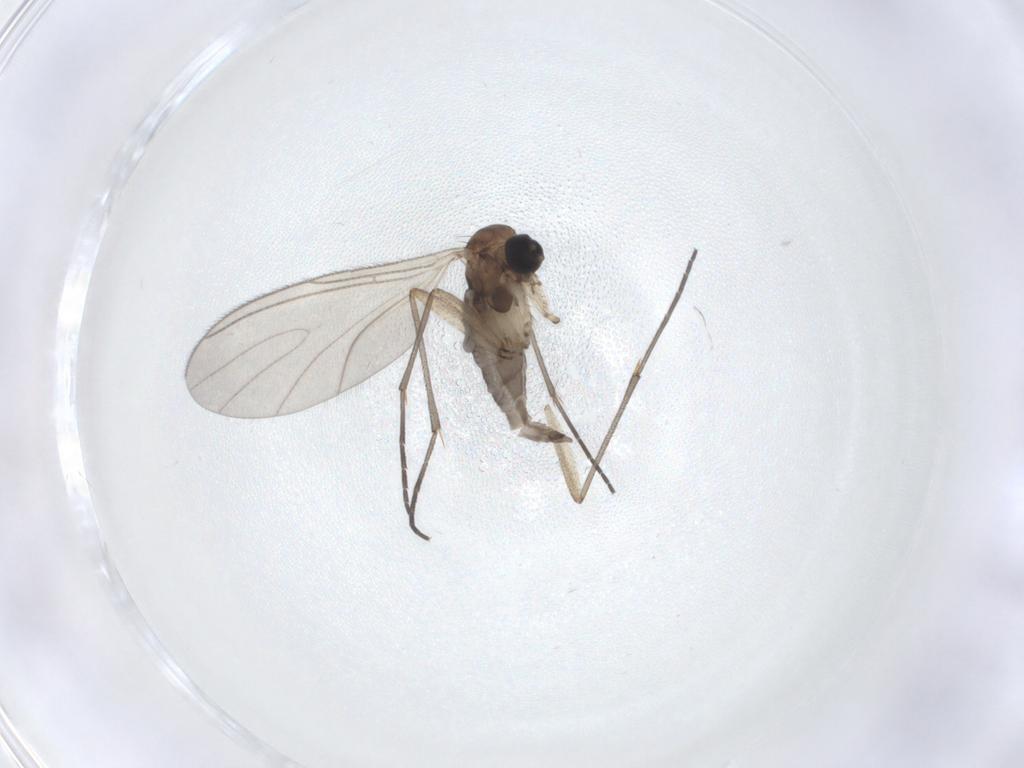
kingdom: Animalia
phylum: Arthropoda
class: Insecta
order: Diptera
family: Sciaridae
